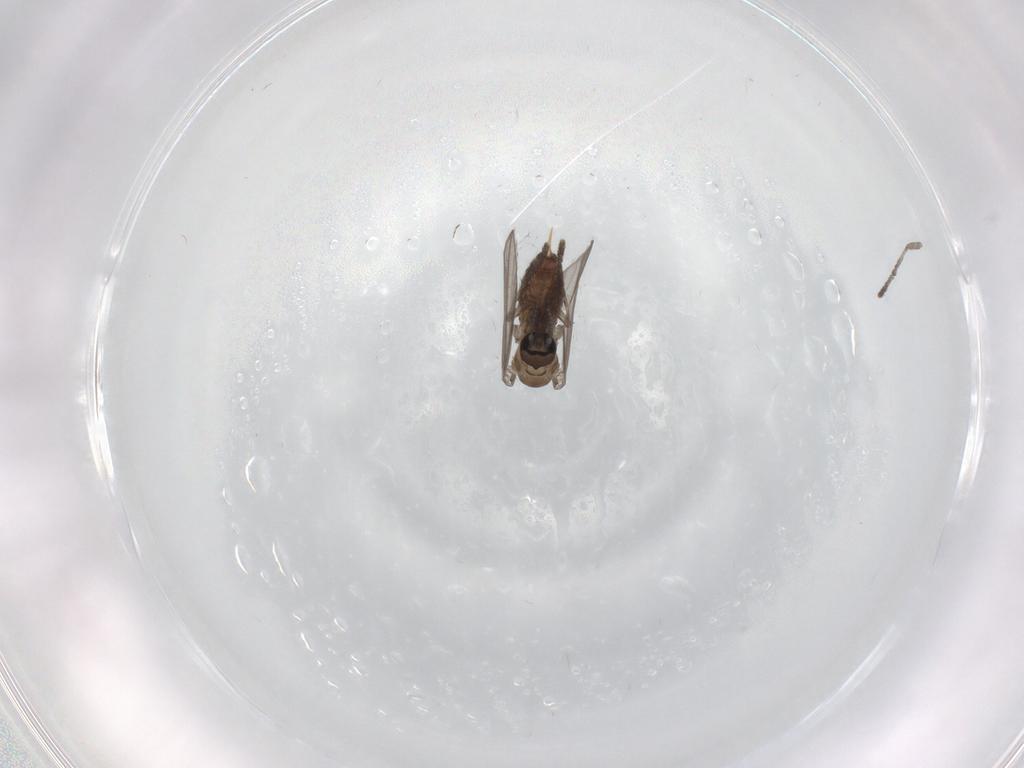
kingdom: Animalia
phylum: Arthropoda
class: Insecta
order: Diptera
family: Psychodidae
